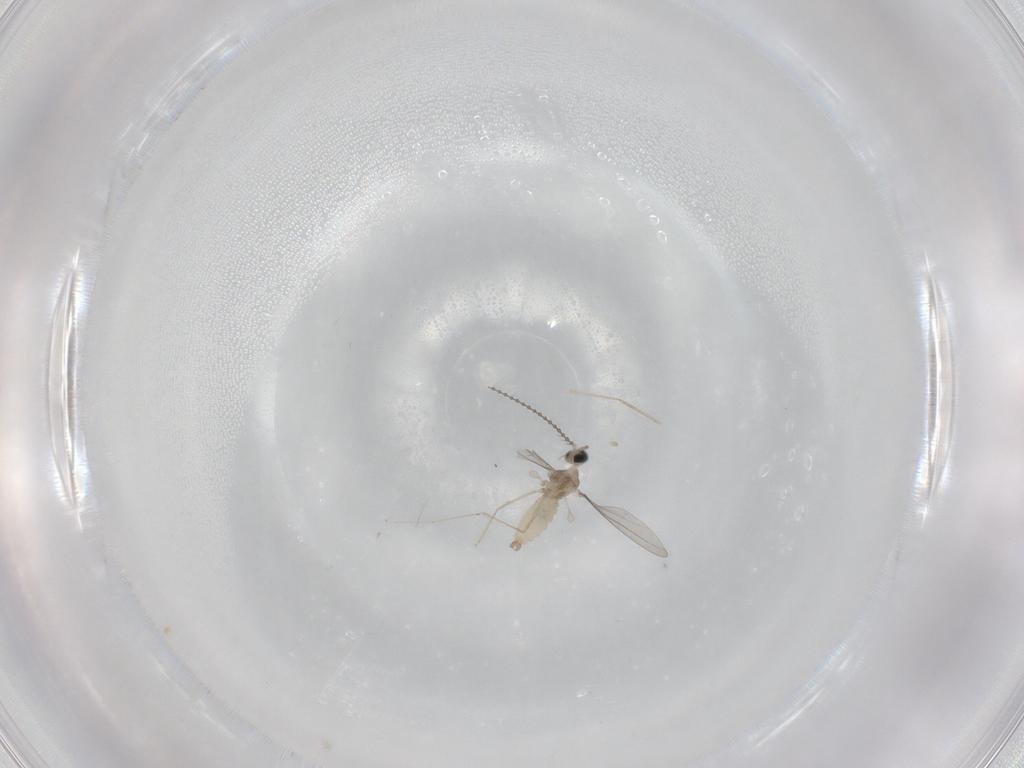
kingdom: Animalia
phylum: Arthropoda
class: Insecta
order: Diptera
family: Cecidomyiidae
